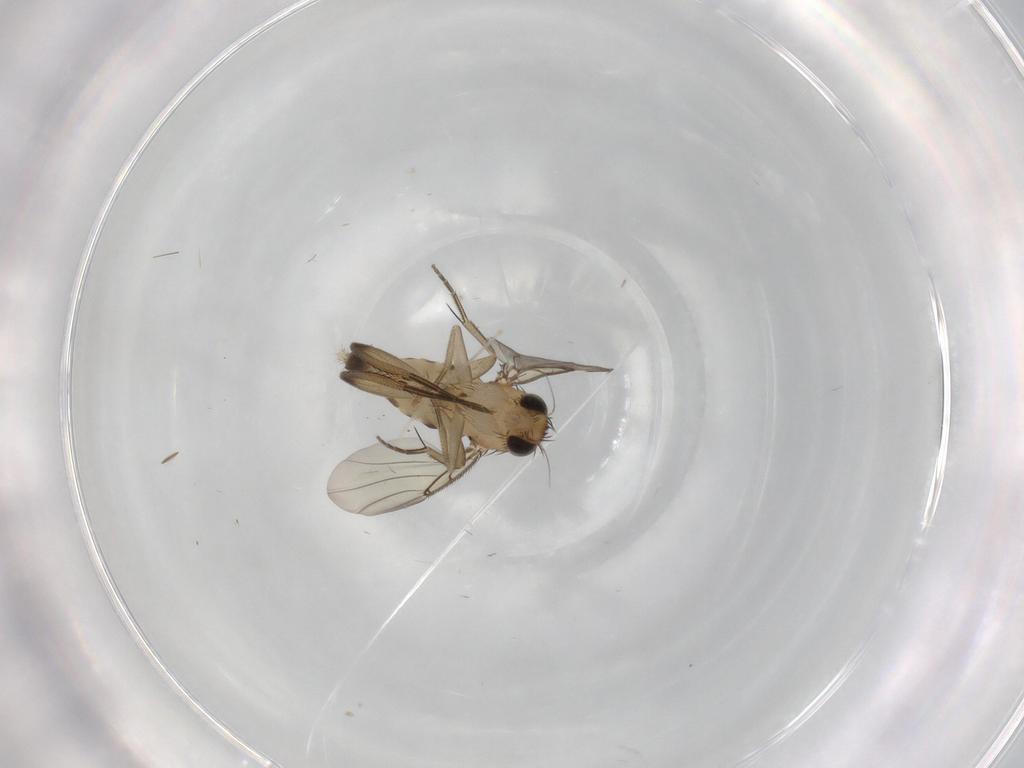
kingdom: Animalia
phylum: Arthropoda
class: Insecta
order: Diptera
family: Phoridae
